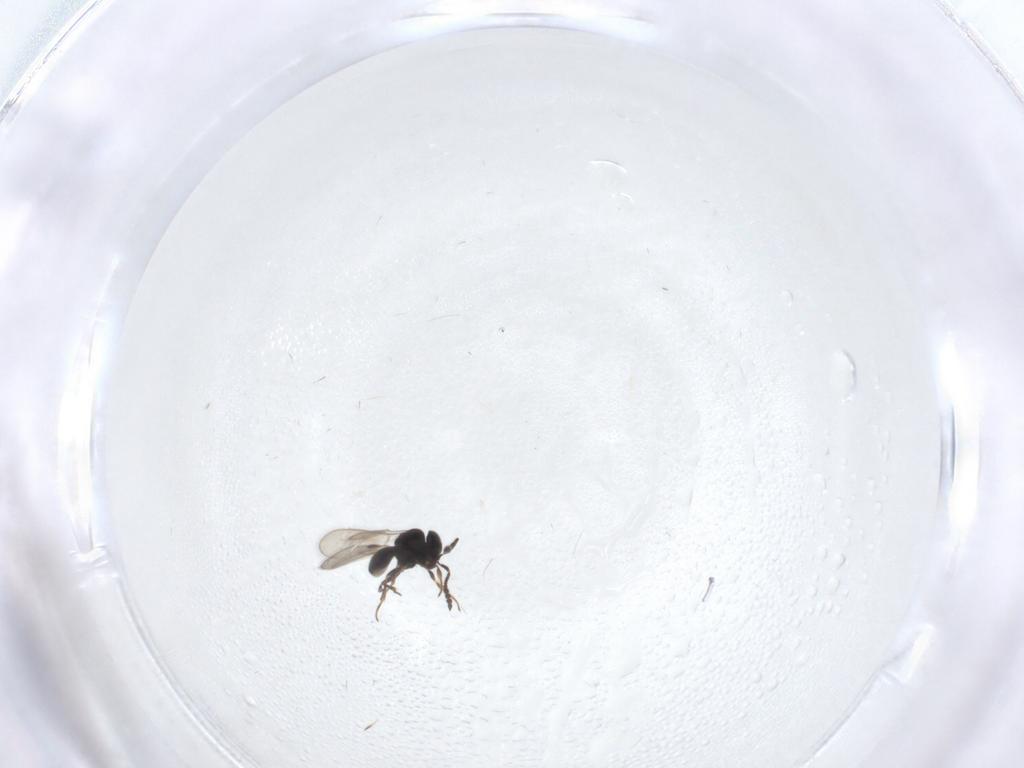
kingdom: Animalia
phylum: Arthropoda
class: Insecta
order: Hymenoptera
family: Scelionidae
